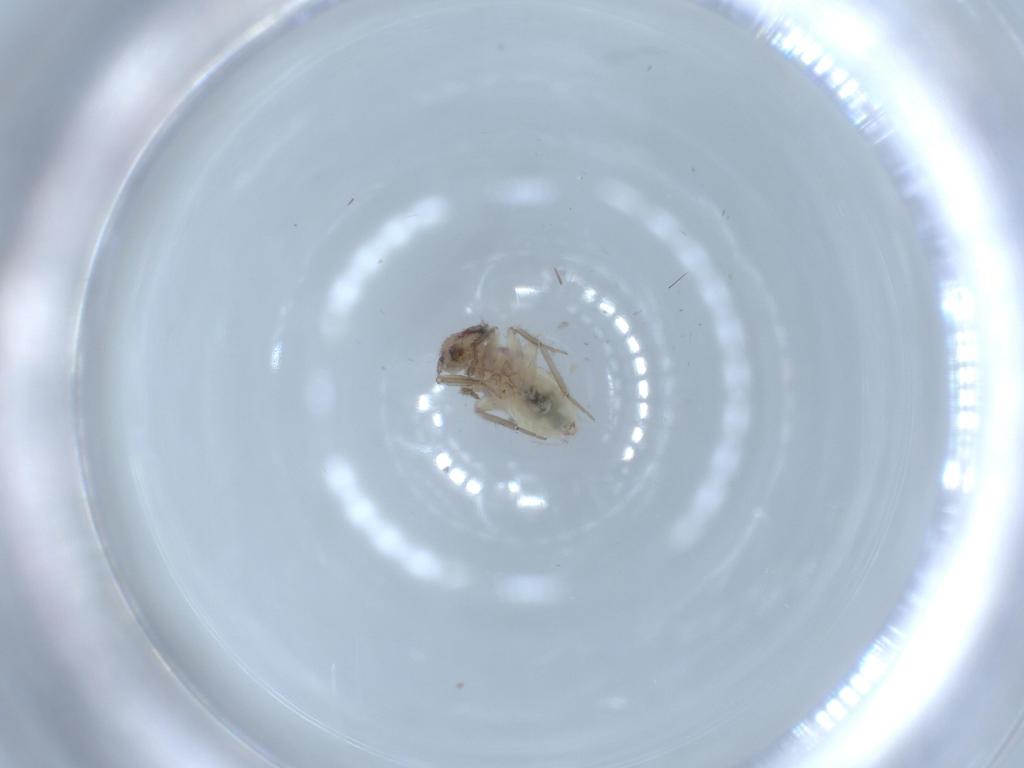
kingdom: Animalia
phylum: Arthropoda
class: Insecta
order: Psocodea
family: Lepidopsocidae
